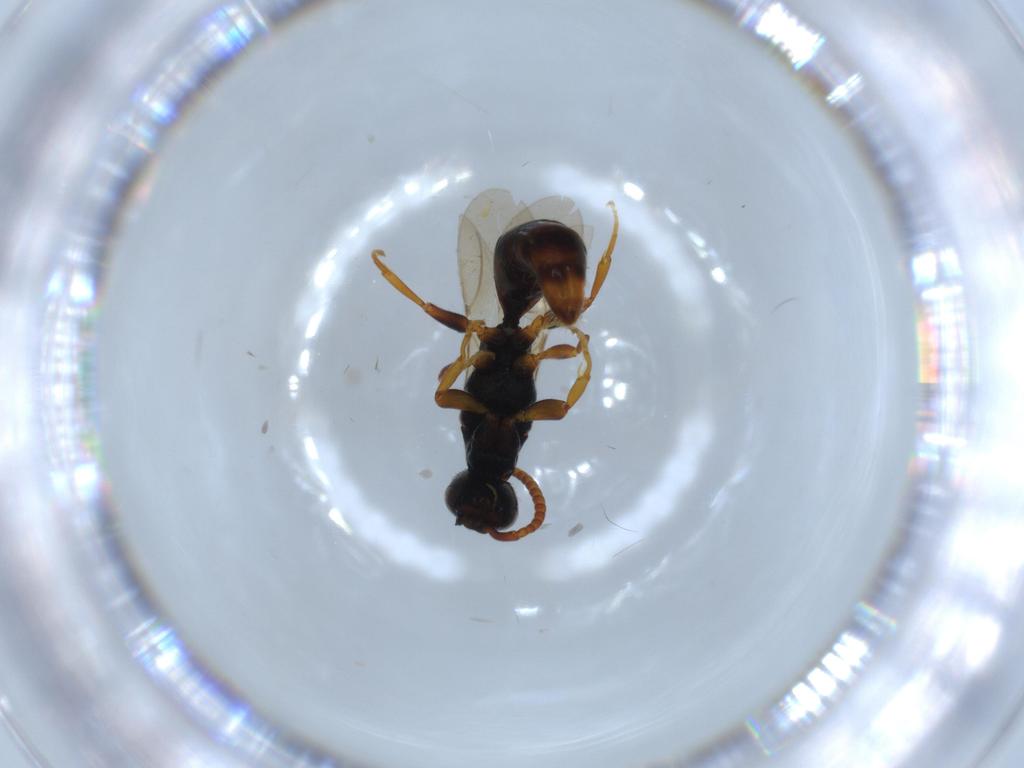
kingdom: Animalia
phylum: Arthropoda
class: Insecta
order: Hymenoptera
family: Bethylidae
